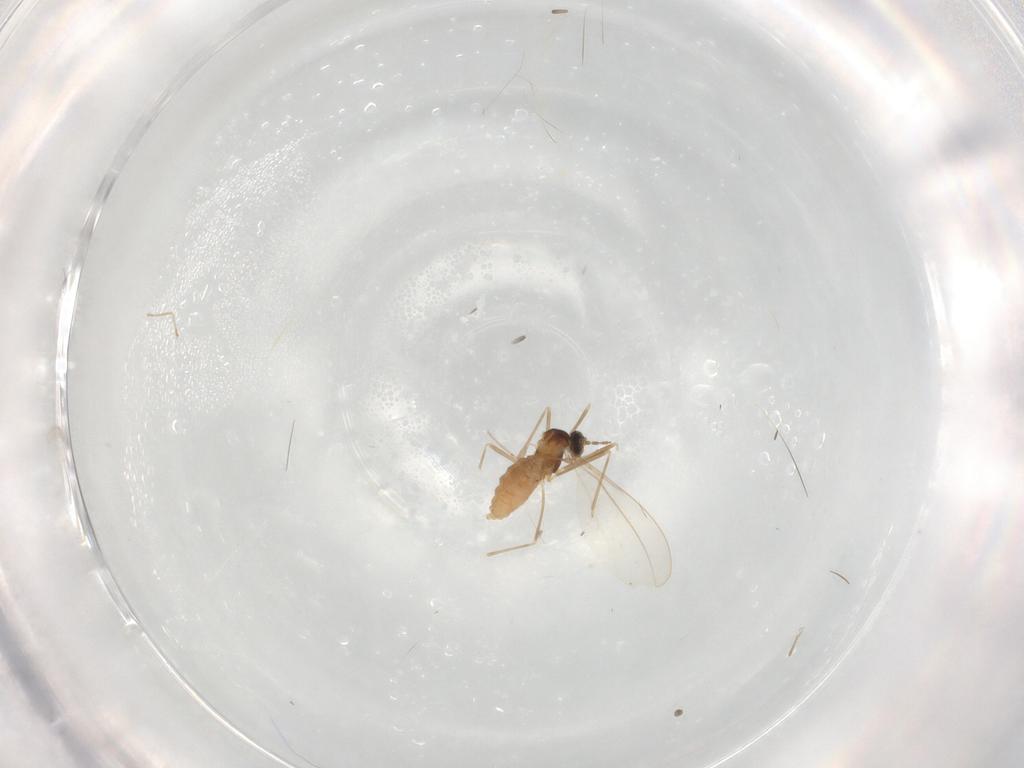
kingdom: Animalia
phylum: Arthropoda
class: Insecta
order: Diptera
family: Cecidomyiidae
